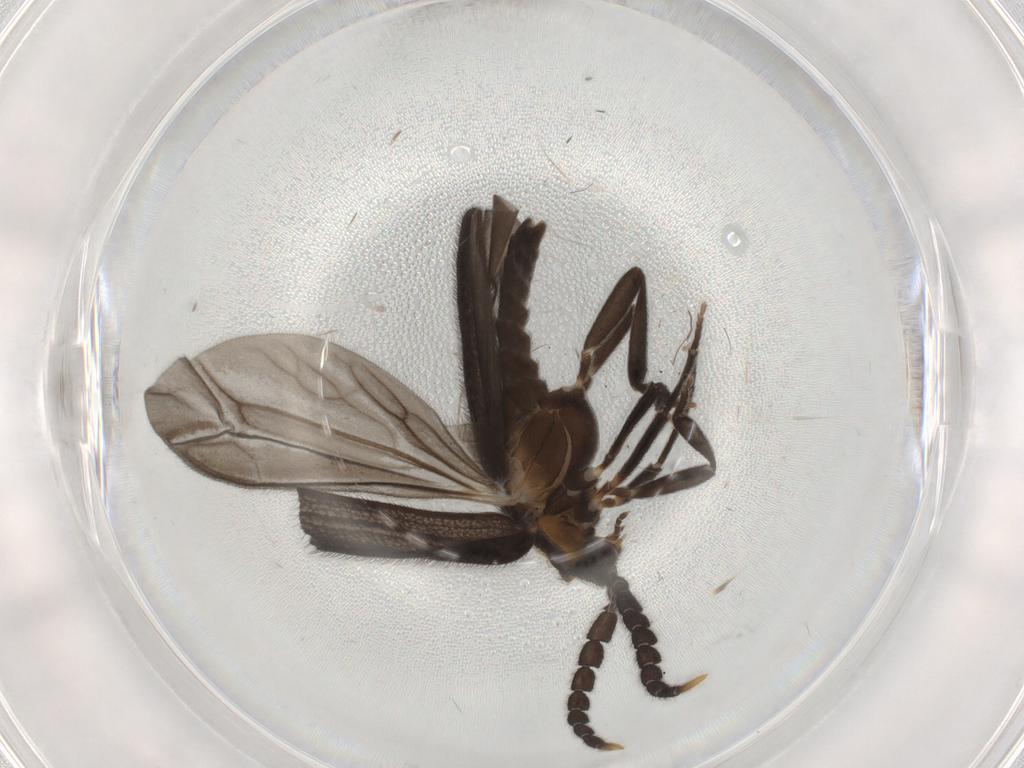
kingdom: Animalia
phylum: Arthropoda
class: Insecta
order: Coleoptera
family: Lycidae
